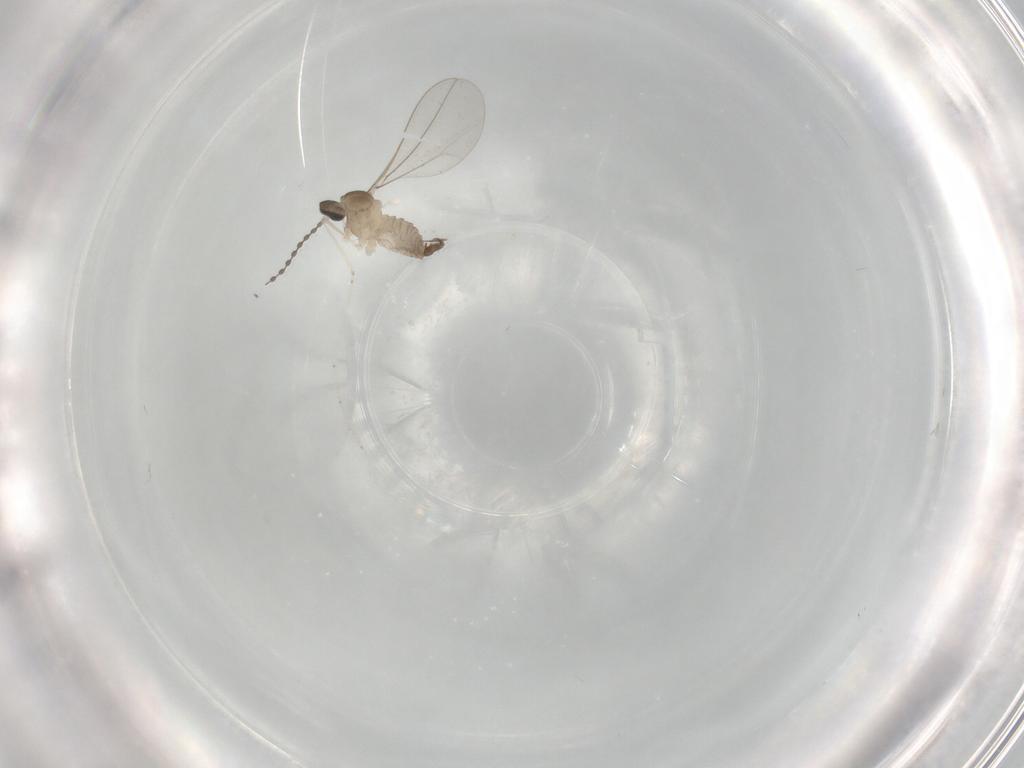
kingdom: Animalia
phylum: Arthropoda
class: Insecta
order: Diptera
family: Cecidomyiidae
